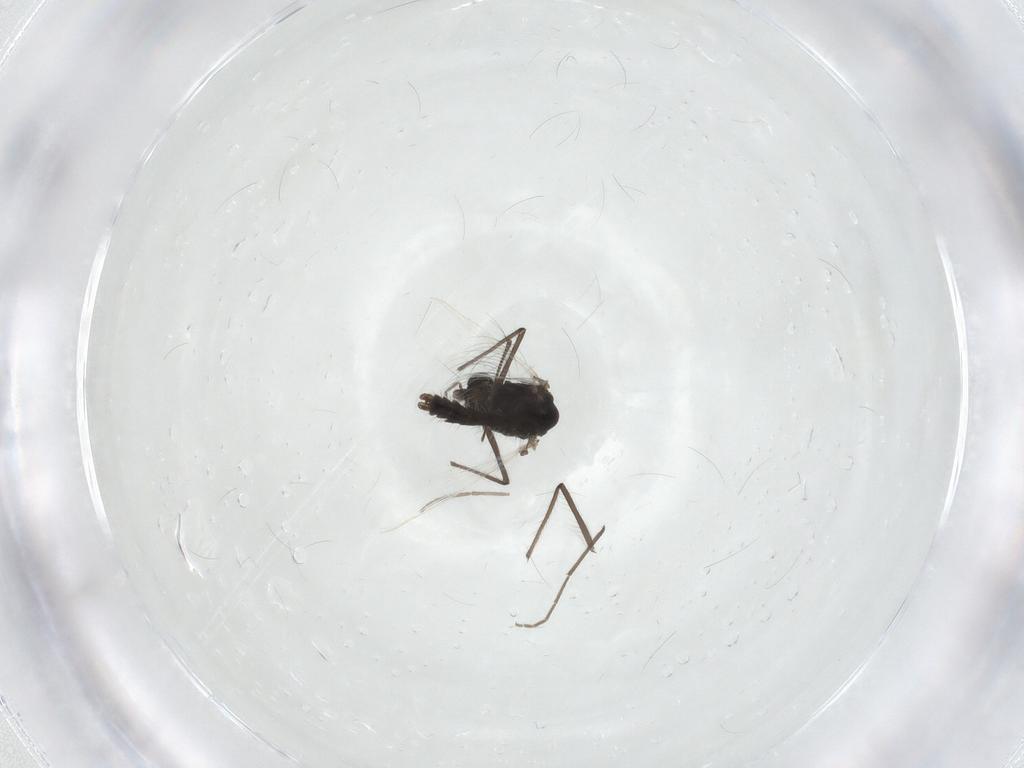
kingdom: Animalia
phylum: Arthropoda
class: Insecta
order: Diptera
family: Chironomidae
